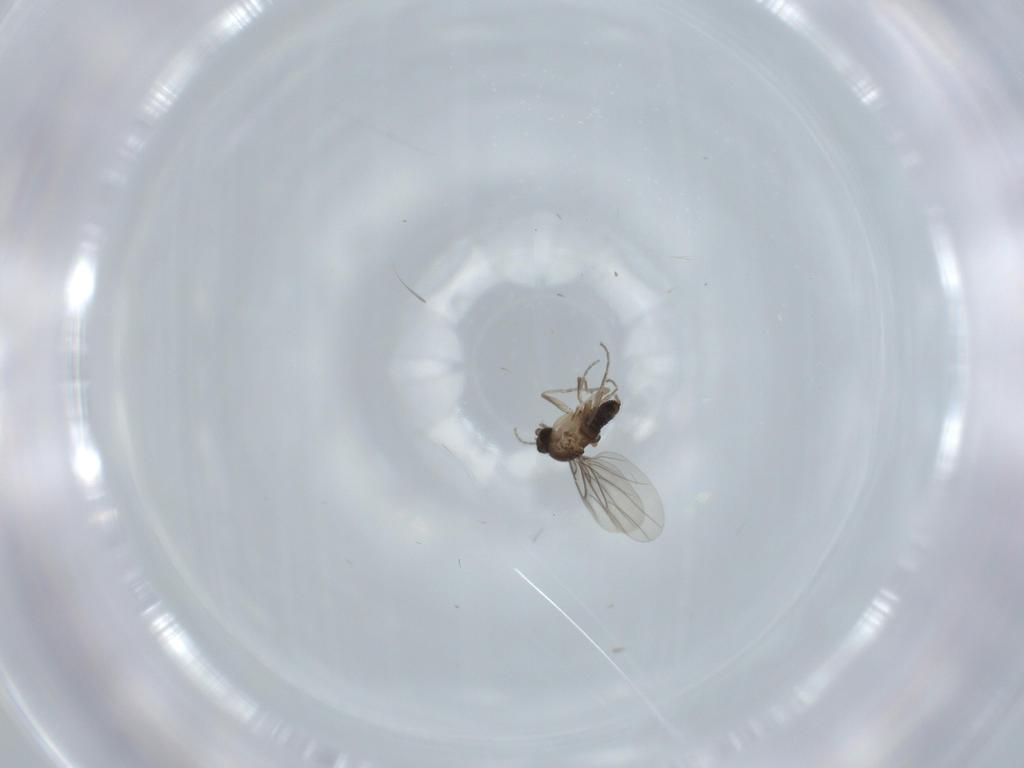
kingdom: Animalia
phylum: Arthropoda
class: Insecta
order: Diptera
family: Phoridae
